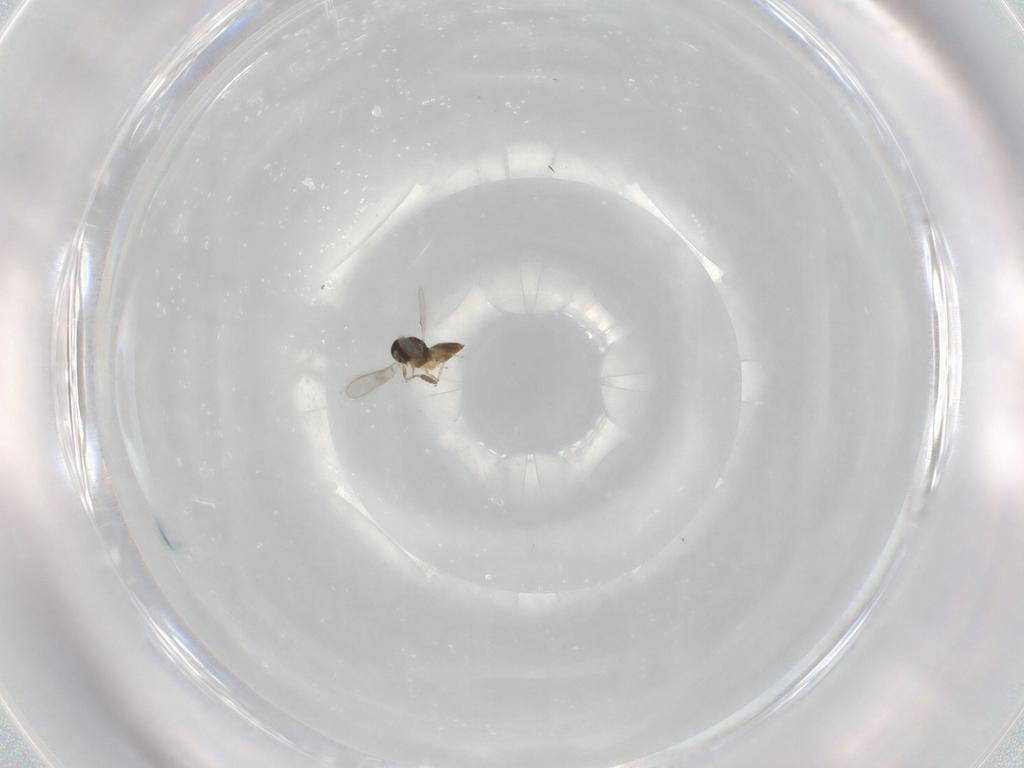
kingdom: Animalia
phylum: Arthropoda
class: Insecta
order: Hymenoptera
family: Scelionidae
